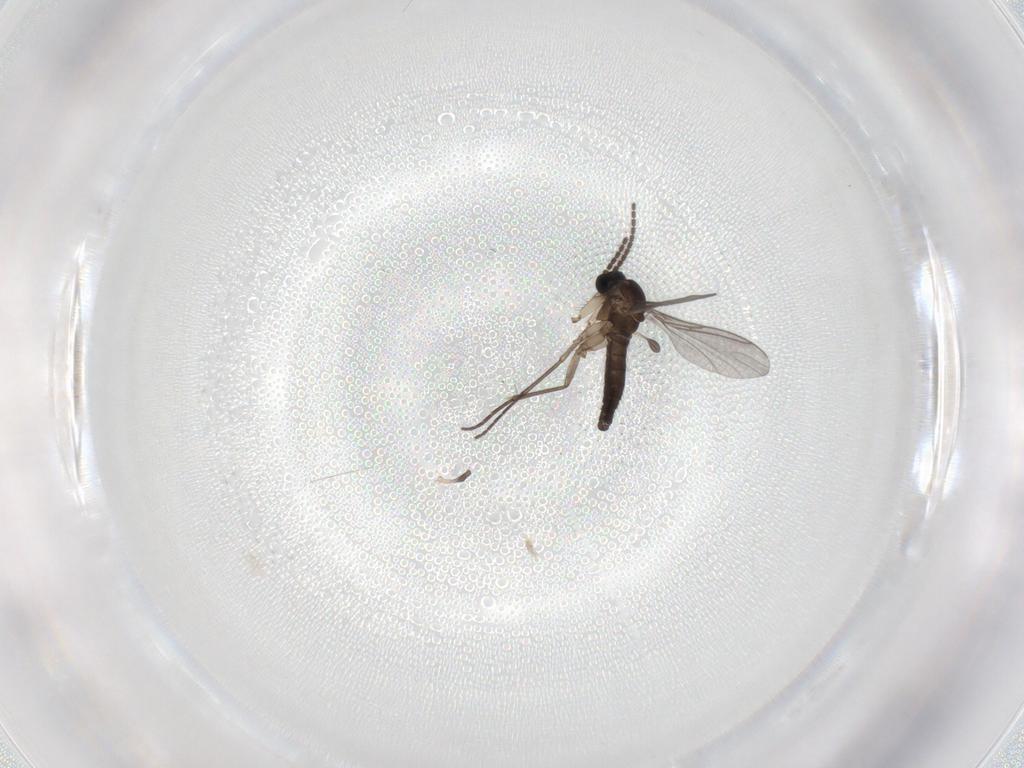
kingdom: Animalia
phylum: Arthropoda
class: Insecta
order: Diptera
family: Sciaridae
